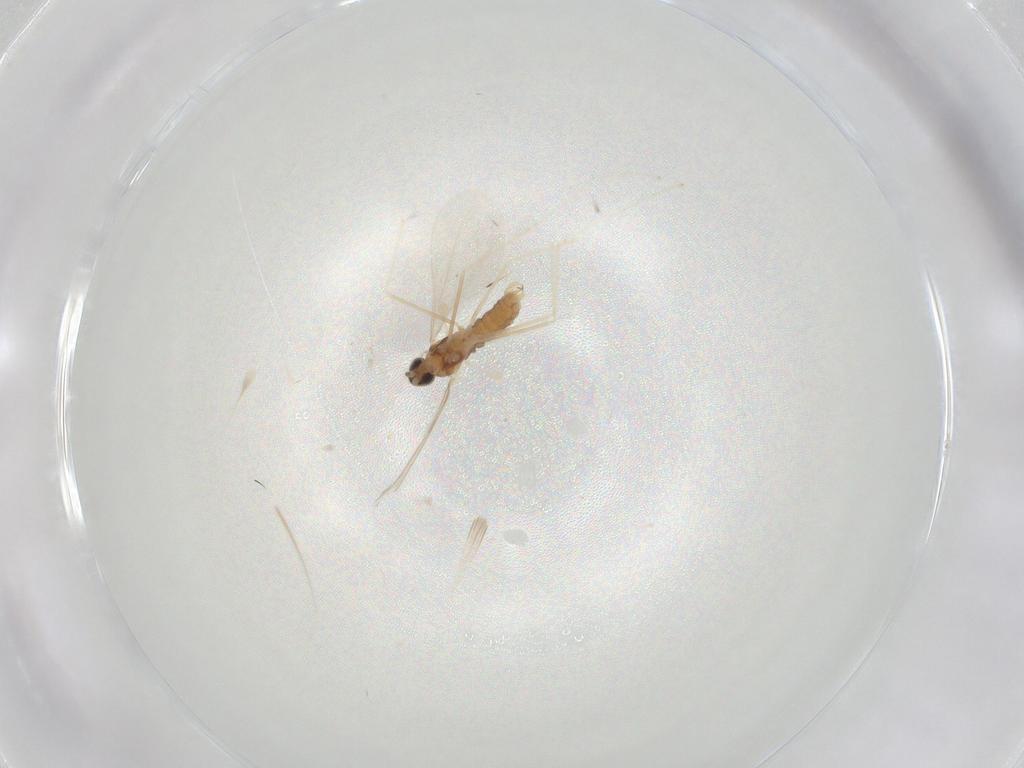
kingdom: Animalia
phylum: Arthropoda
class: Insecta
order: Diptera
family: Cecidomyiidae
